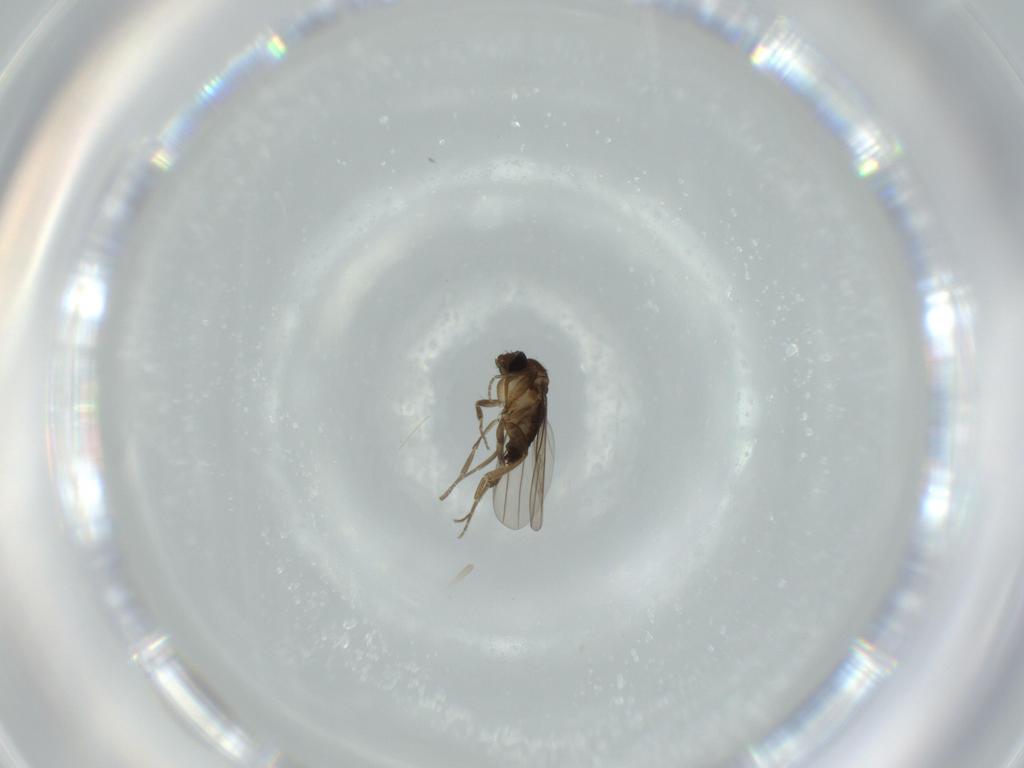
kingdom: Animalia
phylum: Arthropoda
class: Insecta
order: Diptera
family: Phoridae
